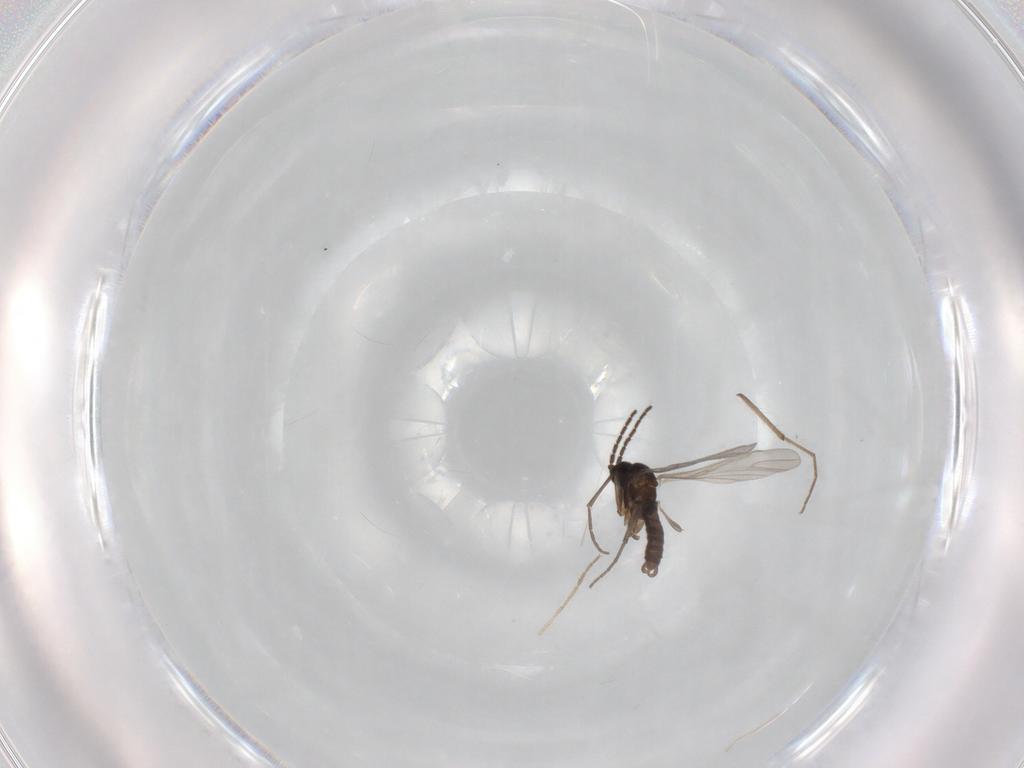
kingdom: Animalia
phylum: Arthropoda
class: Insecta
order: Diptera
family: Sciaridae
